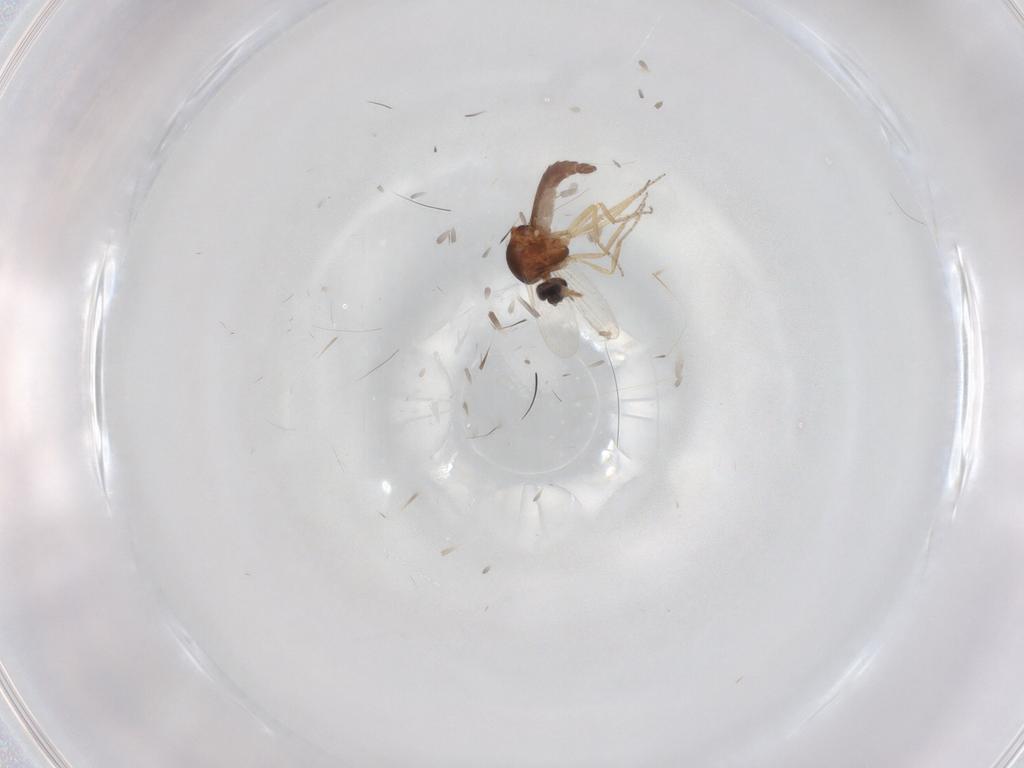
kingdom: Animalia
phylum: Arthropoda
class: Insecta
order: Diptera
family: Ceratopogonidae
